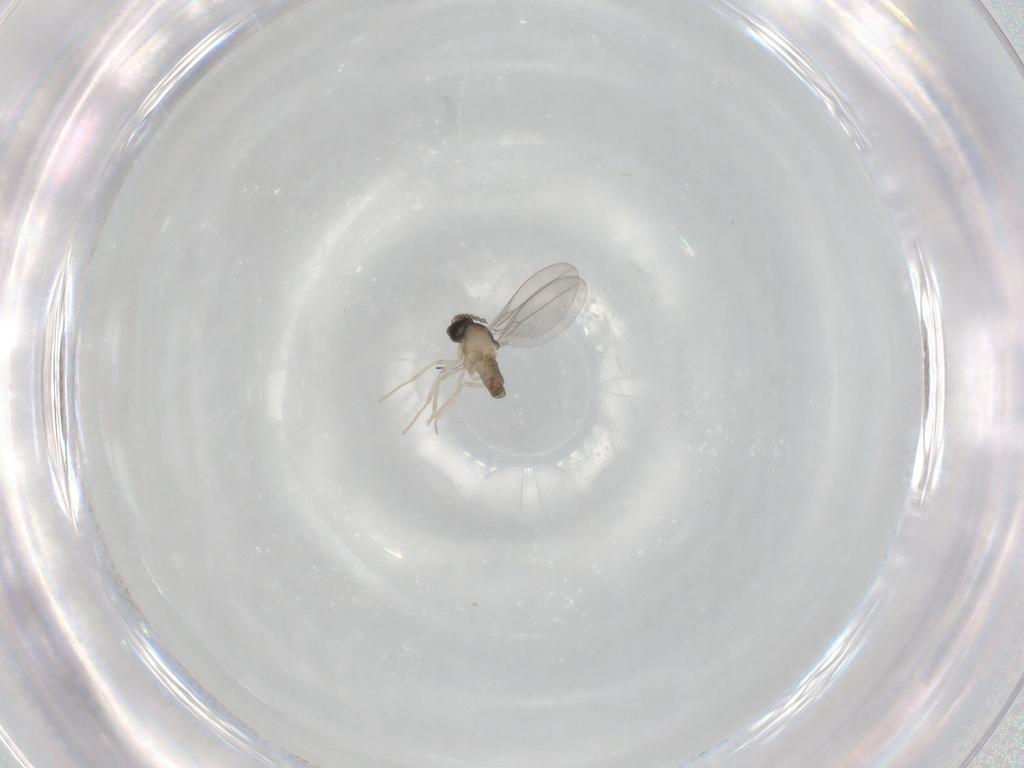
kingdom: Animalia
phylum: Arthropoda
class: Insecta
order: Diptera
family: Cecidomyiidae
